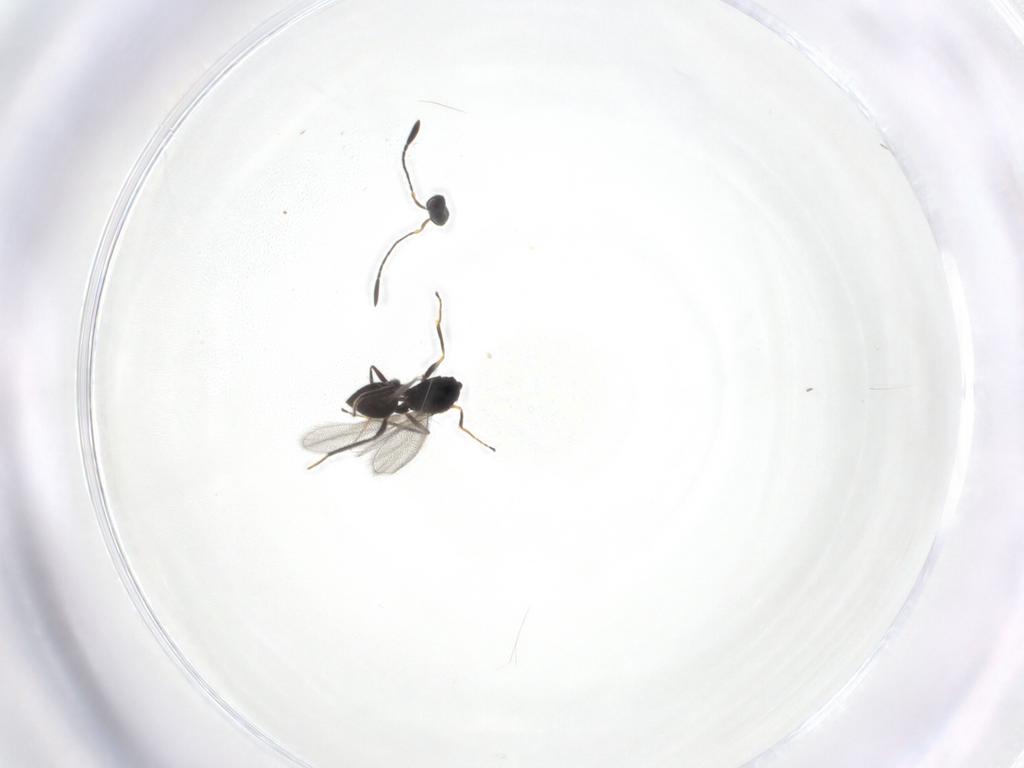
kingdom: Animalia
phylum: Arthropoda
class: Insecta
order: Hymenoptera
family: Mymaridae
